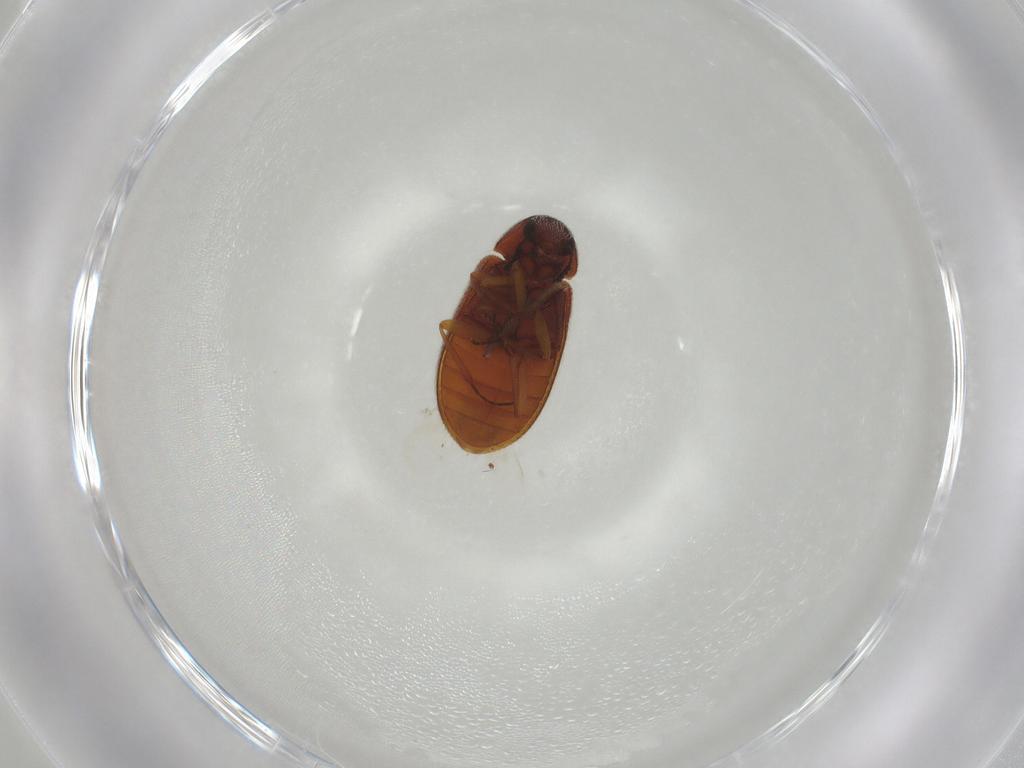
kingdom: Animalia
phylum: Arthropoda
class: Insecta
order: Coleoptera
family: Rhadalidae
